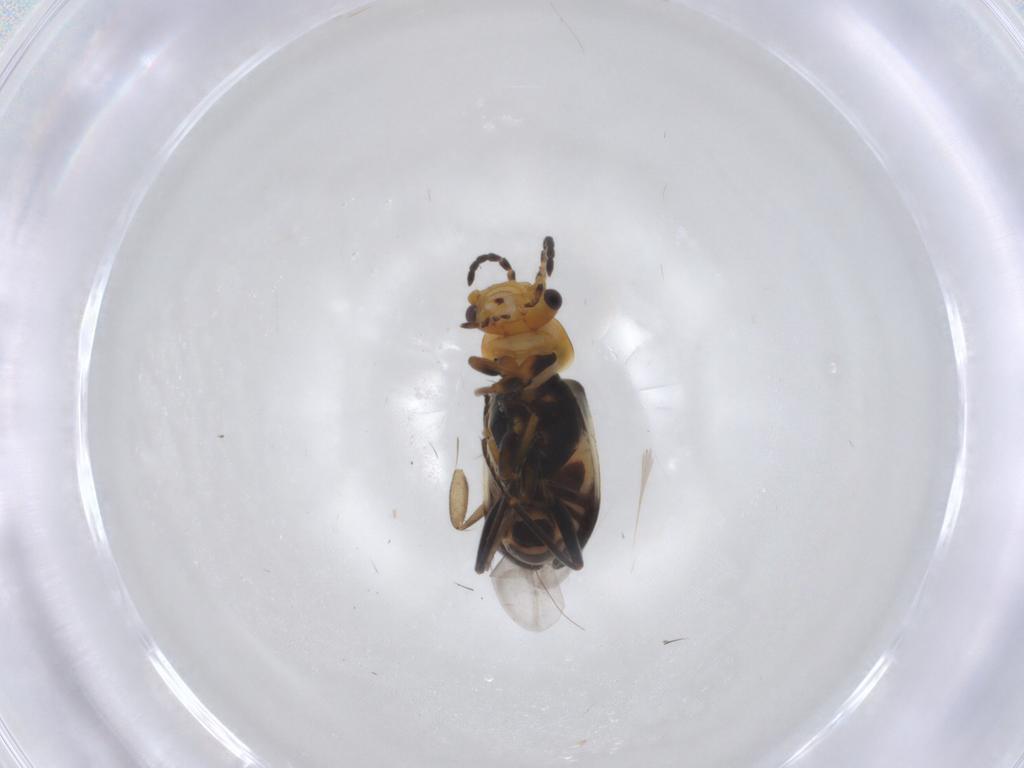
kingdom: Animalia
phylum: Arthropoda
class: Insecta
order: Coleoptera
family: Melyridae
